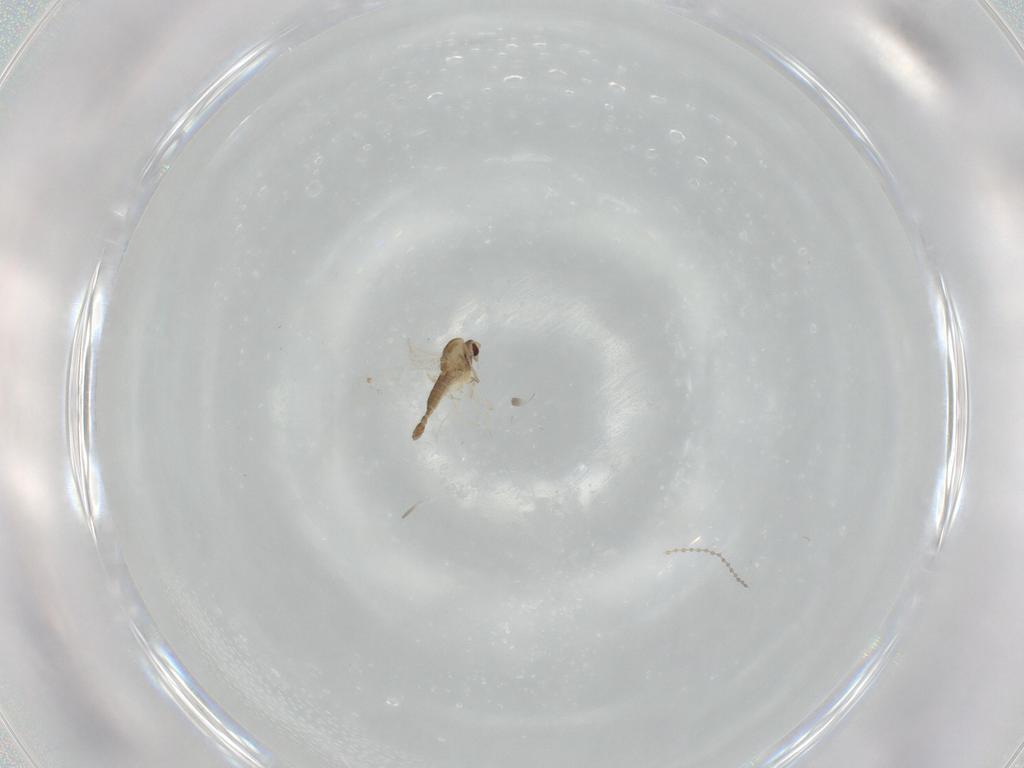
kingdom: Animalia
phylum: Arthropoda
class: Insecta
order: Diptera
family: Chironomidae
